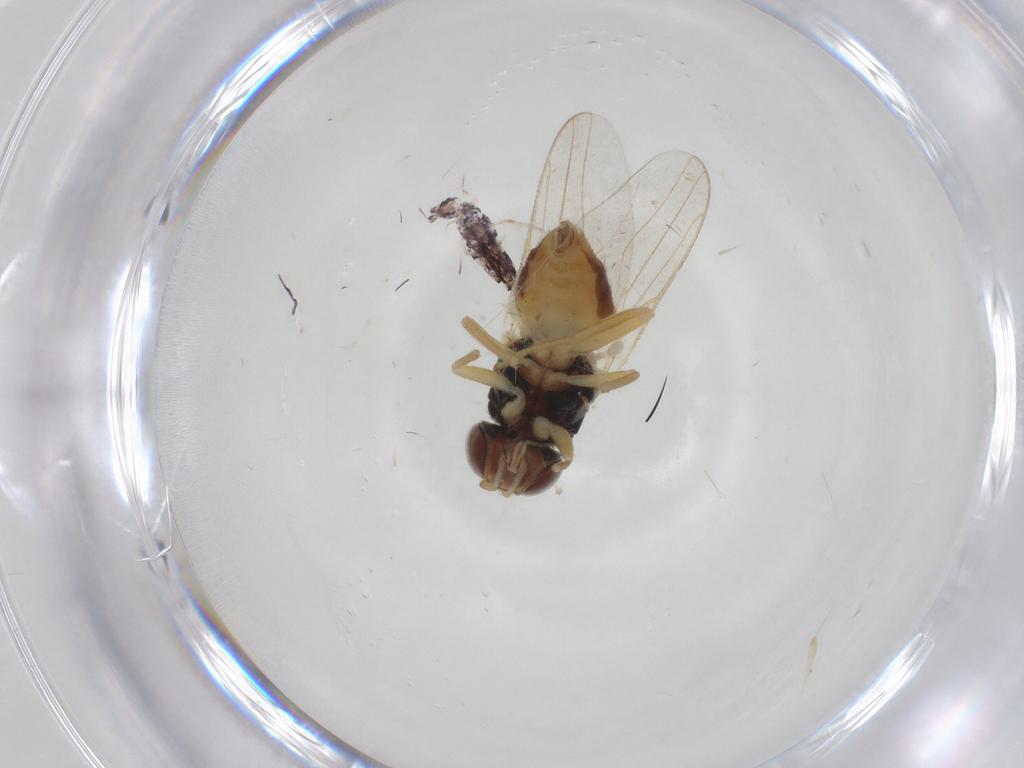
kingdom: Animalia
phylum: Arthropoda
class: Insecta
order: Diptera
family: Chloropidae
